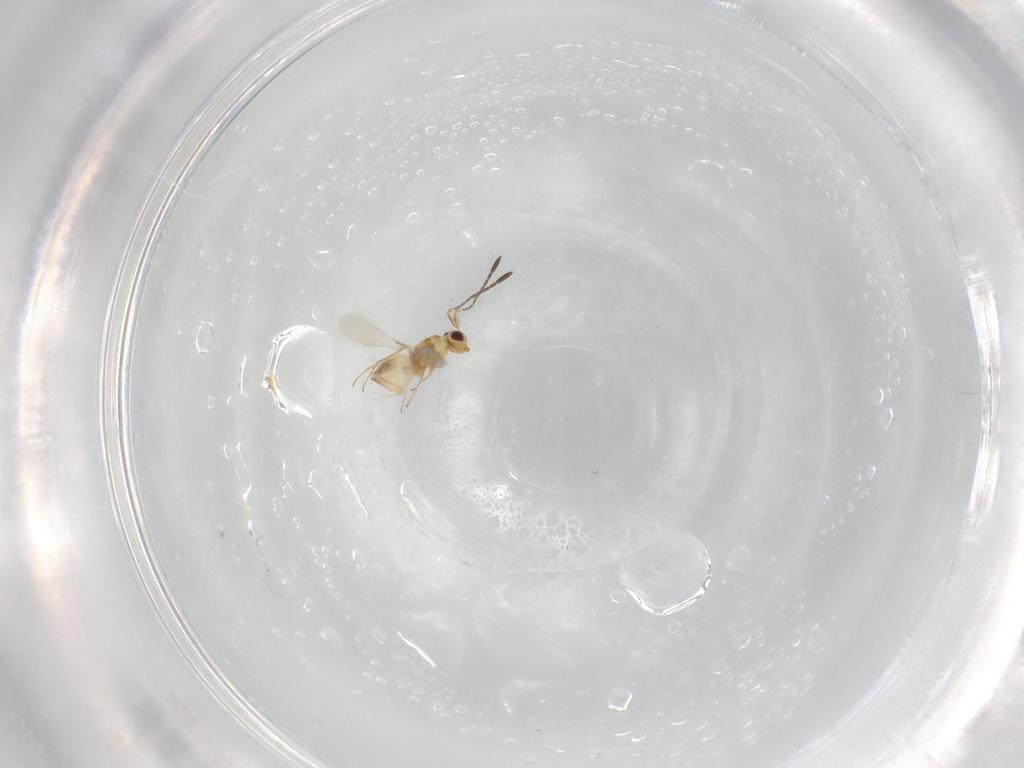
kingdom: Animalia
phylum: Arthropoda
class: Insecta
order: Hymenoptera
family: Mymaridae
